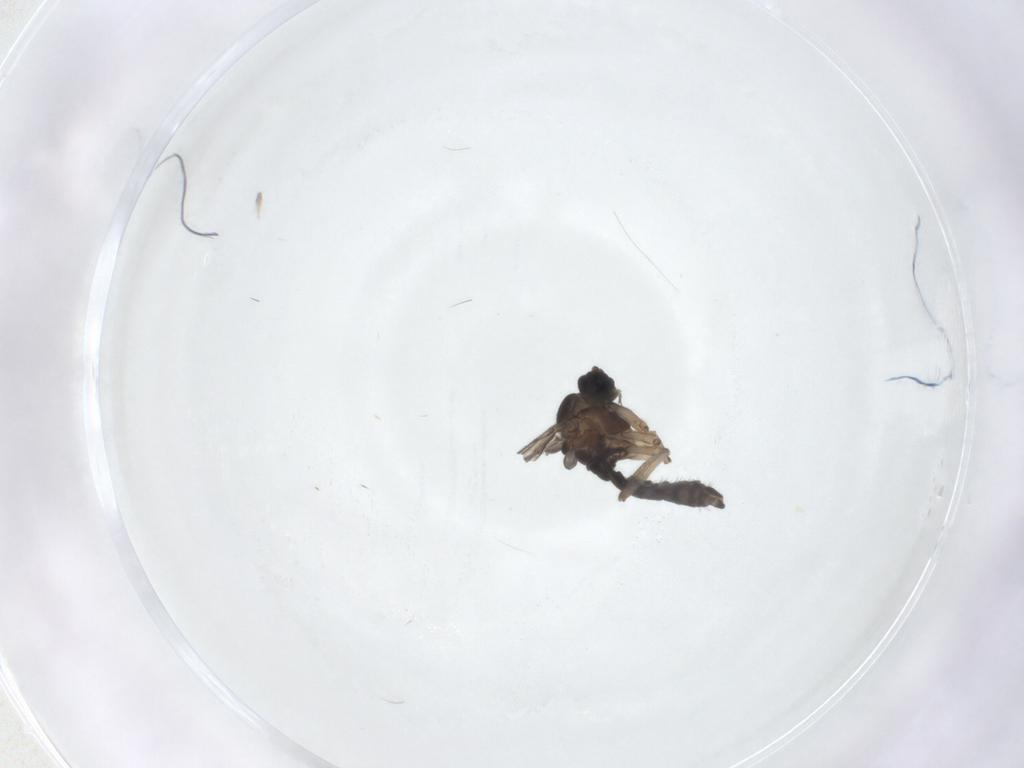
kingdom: Animalia
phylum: Arthropoda
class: Insecta
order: Diptera
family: Sciaridae
